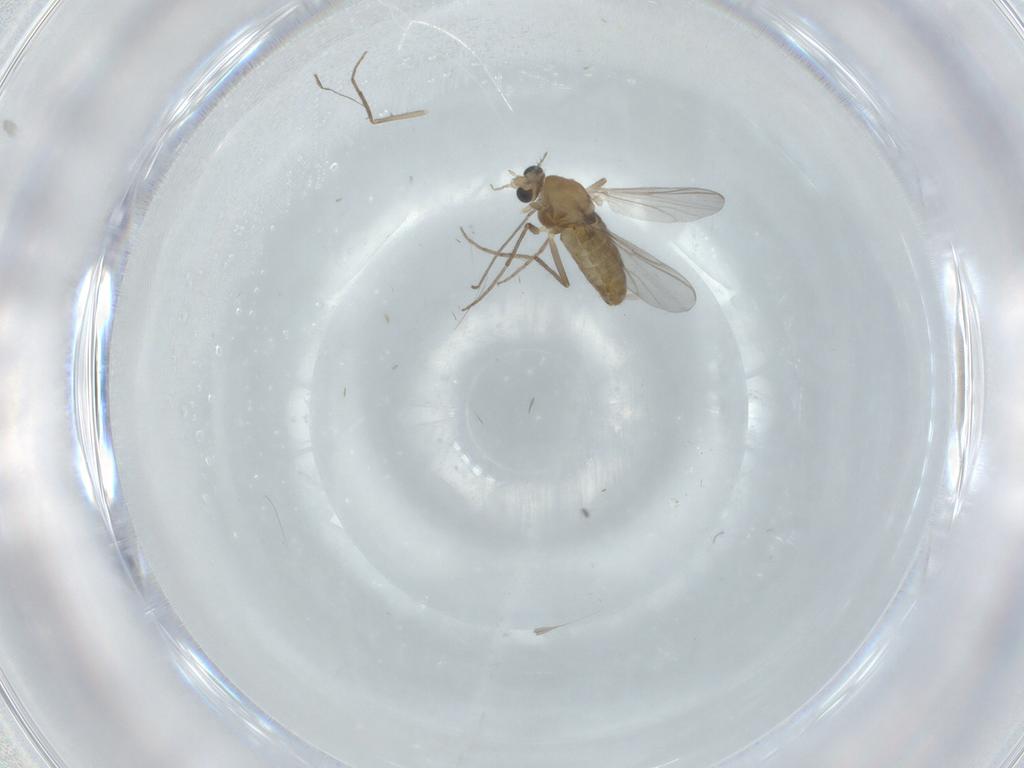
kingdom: Animalia
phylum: Arthropoda
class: Insecta
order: Diptera
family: Chironomidae
